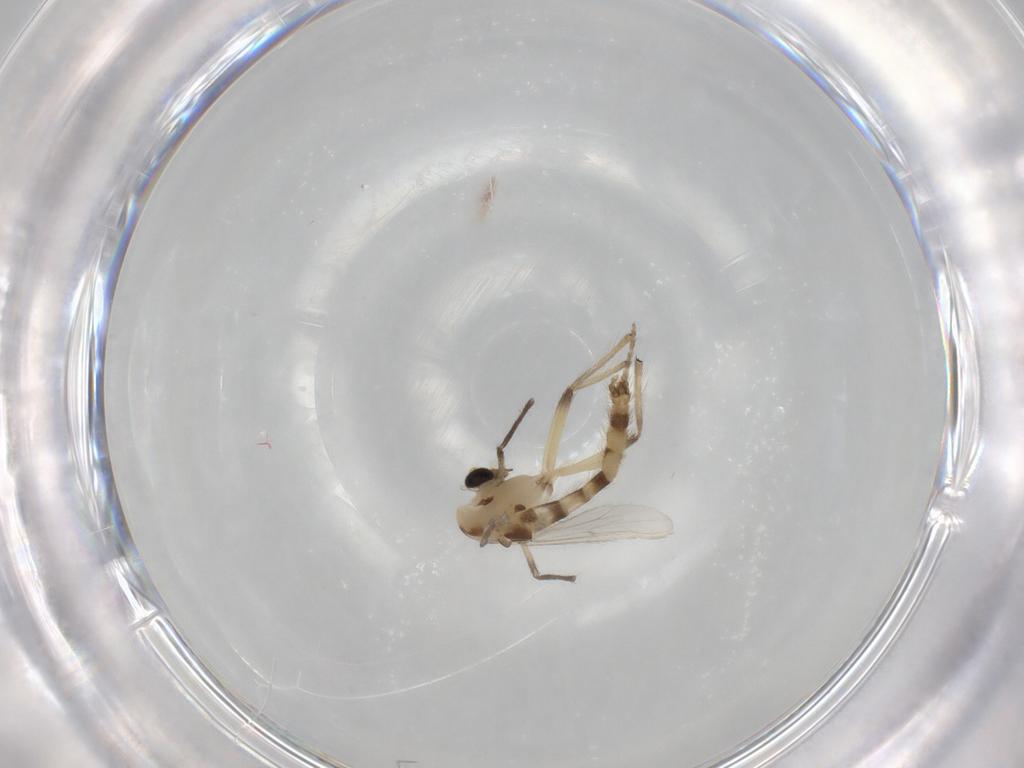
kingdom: Animalia
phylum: Arthropoda
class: Insecta
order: Diptera
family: Chironomidae
